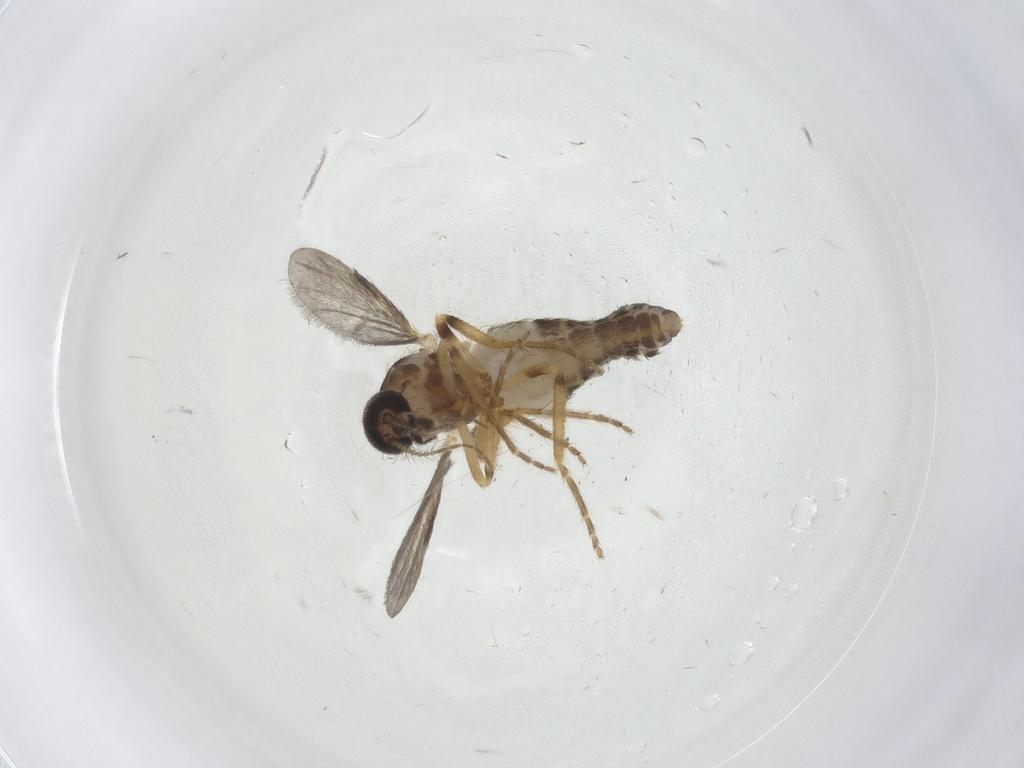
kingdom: Animalia
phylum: Arthropoda
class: Insecta
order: Diptera
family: Ceratopogonidae
